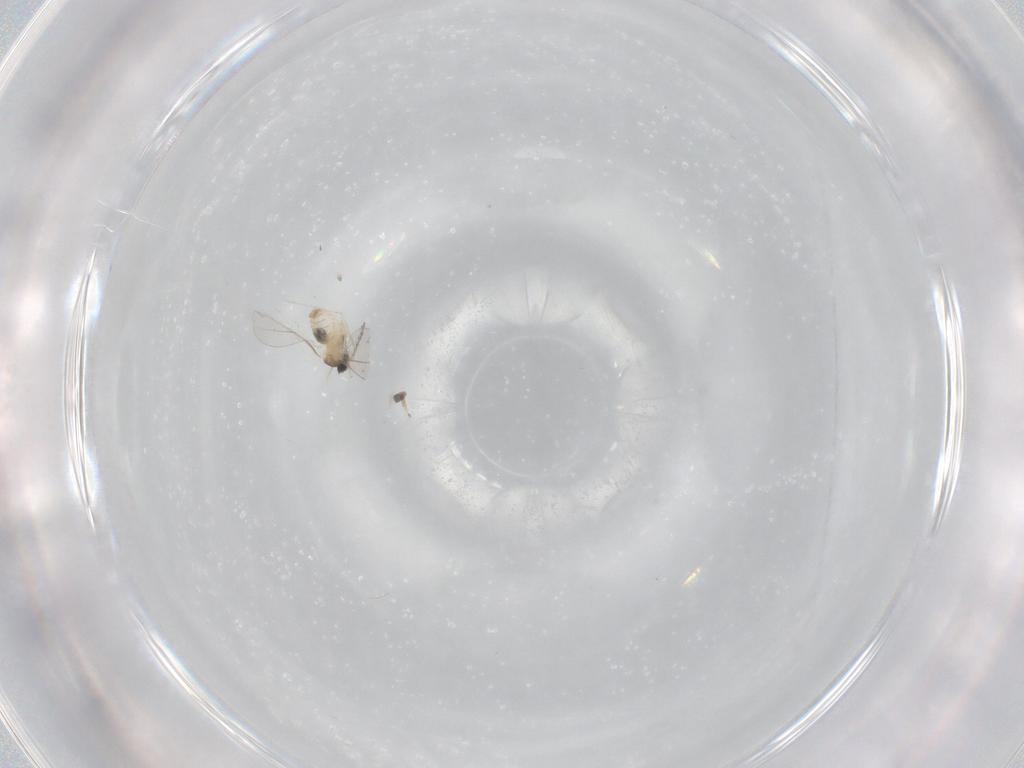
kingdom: Animalia
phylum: Arthropoda
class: Insecta
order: Diptera
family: Cecidomyiidae
